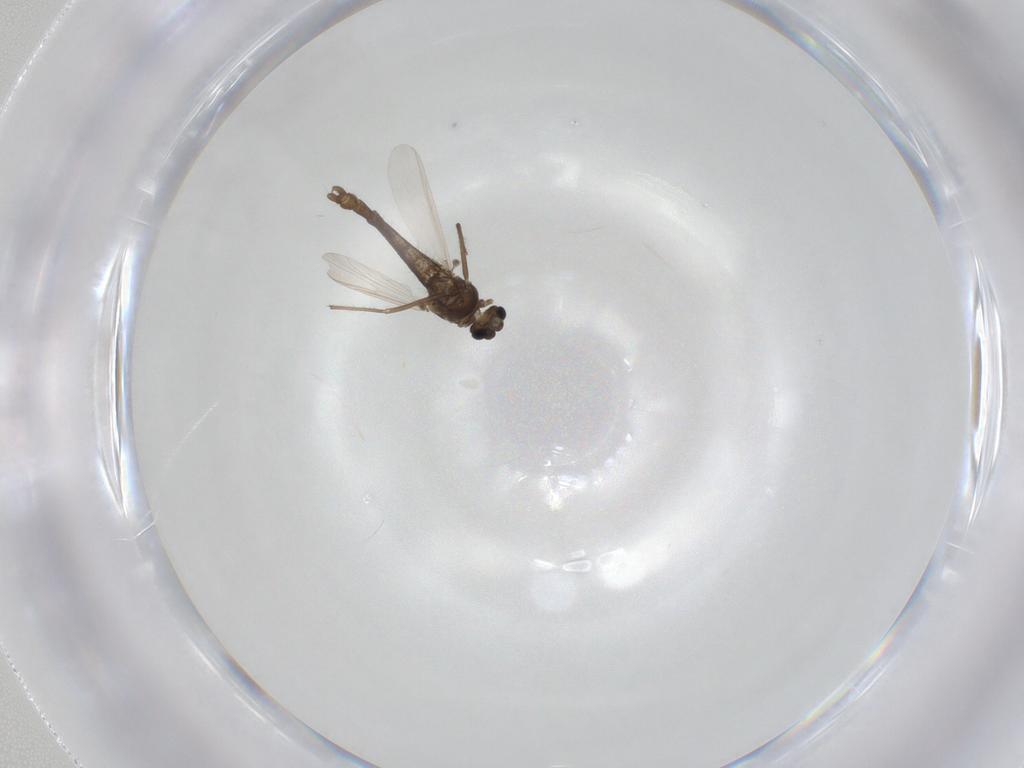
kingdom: Animalia
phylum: Arthropoda
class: Insecta
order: Diptera
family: Chironomidae
